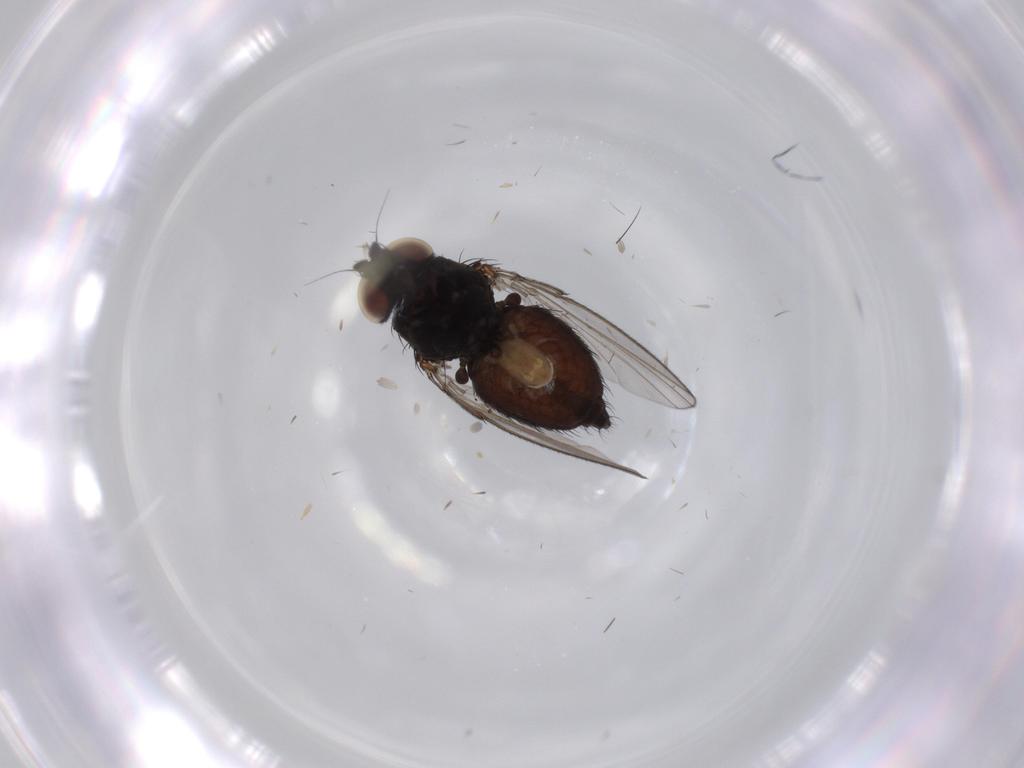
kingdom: Animalia
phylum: Arthropoda
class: Insecta
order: Diptera
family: Milichiidae
